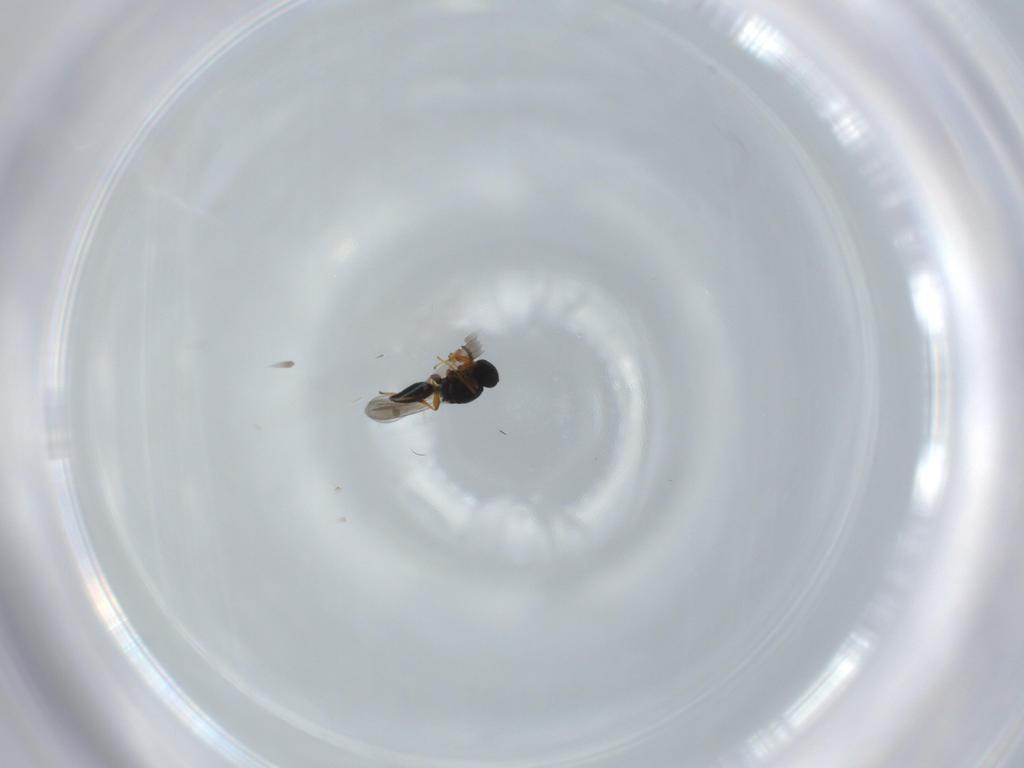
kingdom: Animalia
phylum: Arthropoda
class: Insecta
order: Hymenoptera
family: Platygastridae
